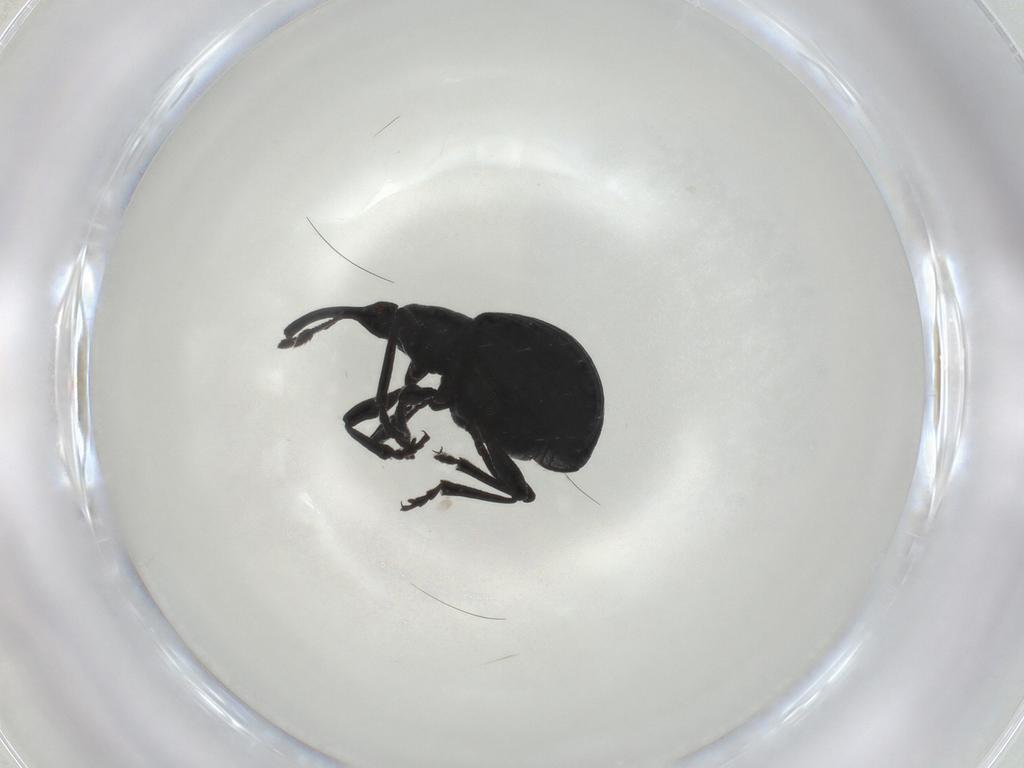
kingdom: Animalia
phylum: Arthropoda
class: Insecta
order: Coleoptera
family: Brentidae
